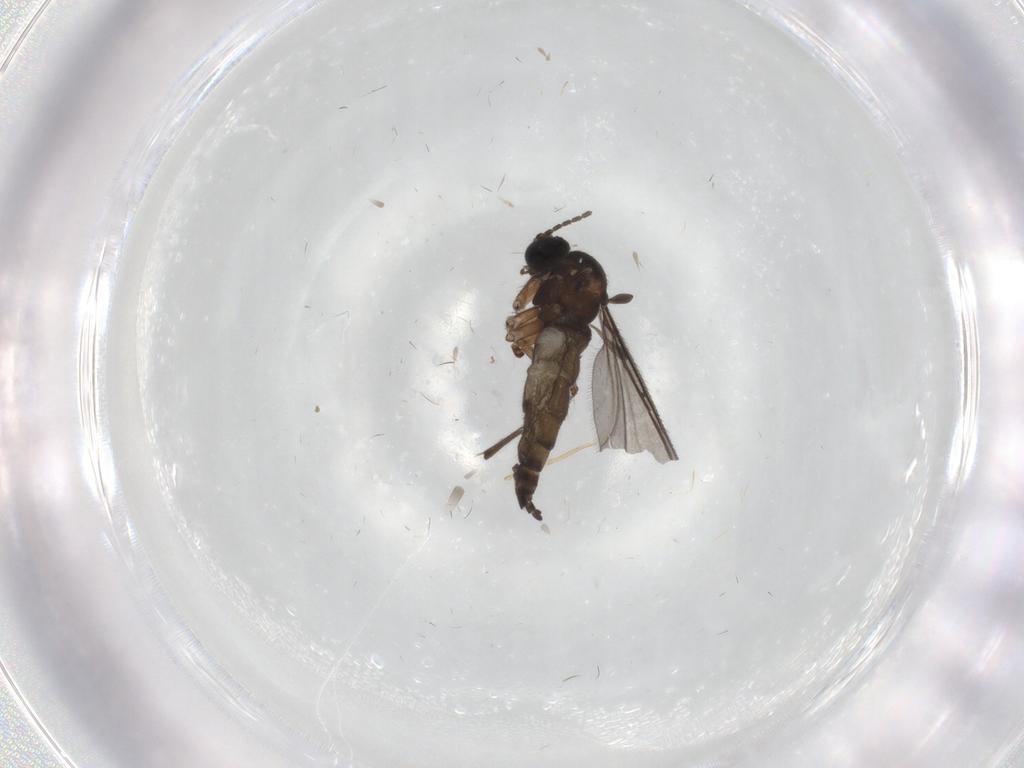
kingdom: Animalia
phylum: Arthropoda
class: Insecta
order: Diptera
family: Sciaridae
